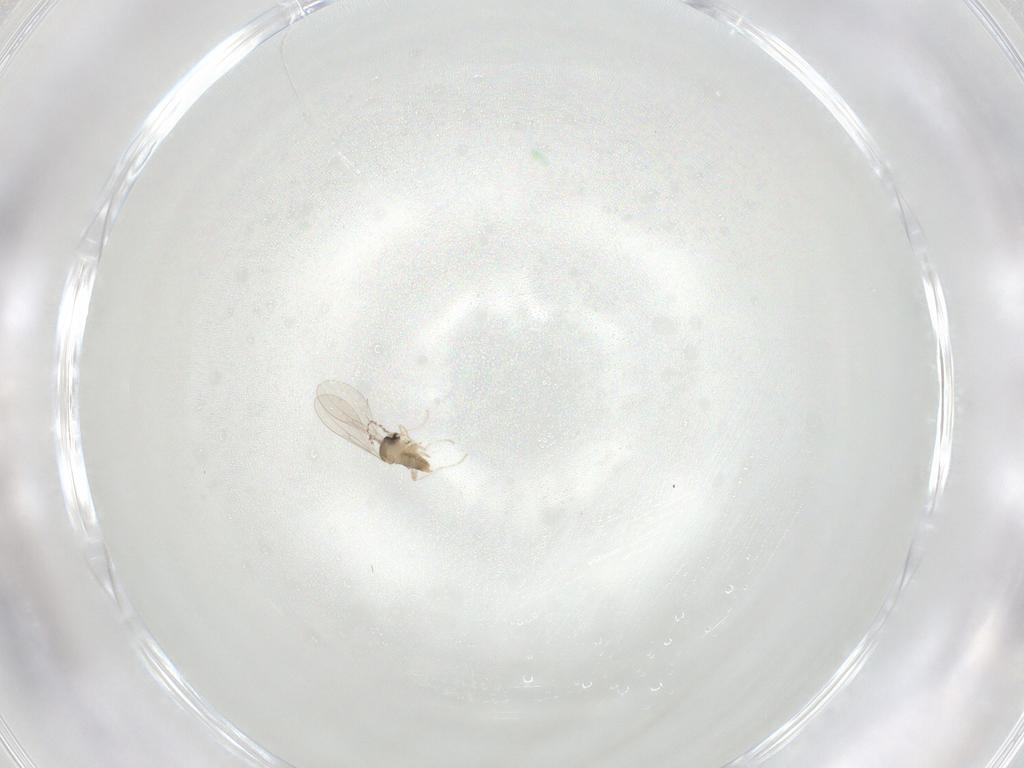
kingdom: Animalia
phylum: Arthropoda
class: Insecta
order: Diptera
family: Cecidomyiidae
